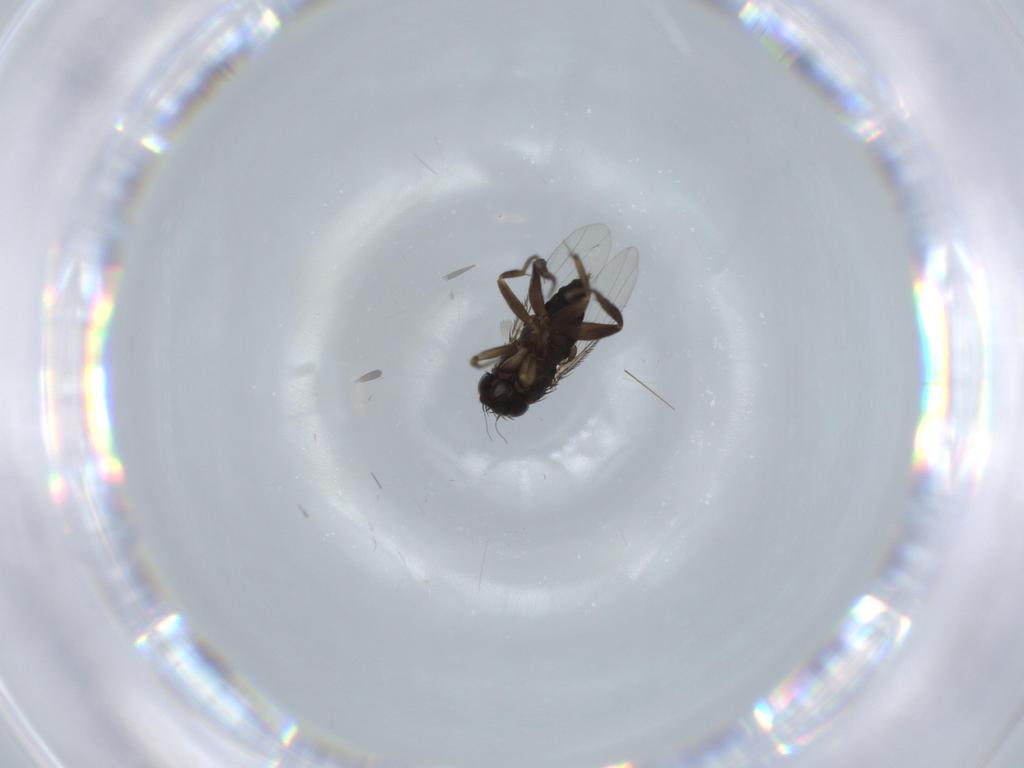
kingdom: Animalia
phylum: Arthropoda
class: Insecta
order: Diptera
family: Phoridae
